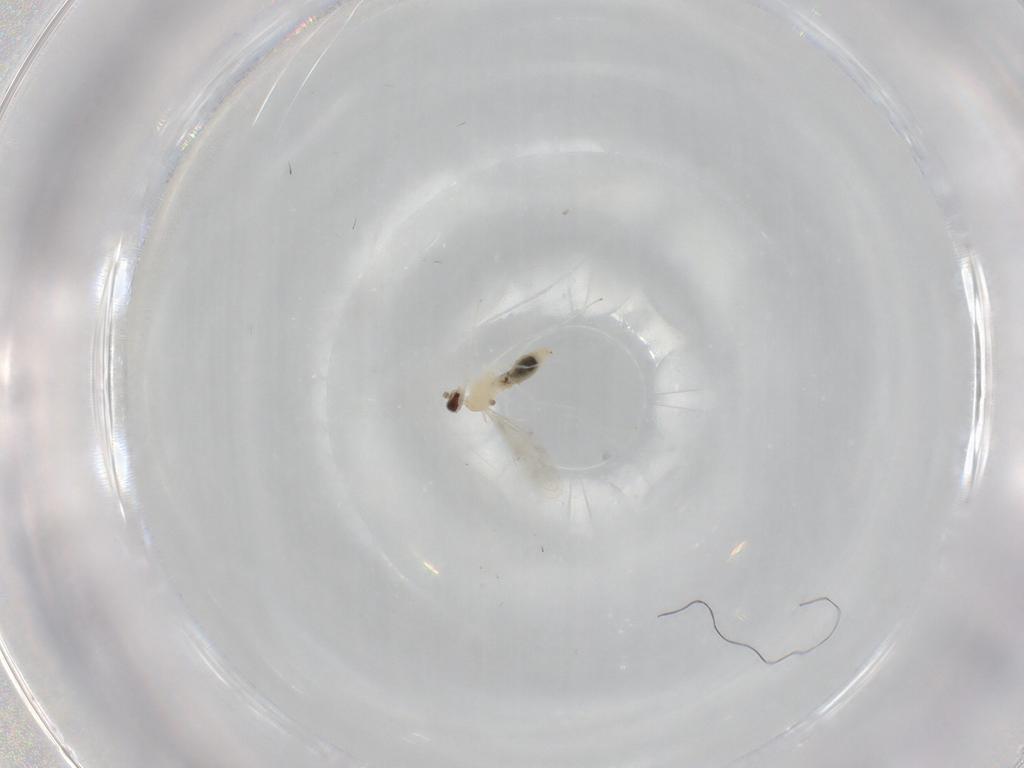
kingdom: Animalia
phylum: Arthropoda
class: Insecta
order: Diptera
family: Cecidomyiidae
